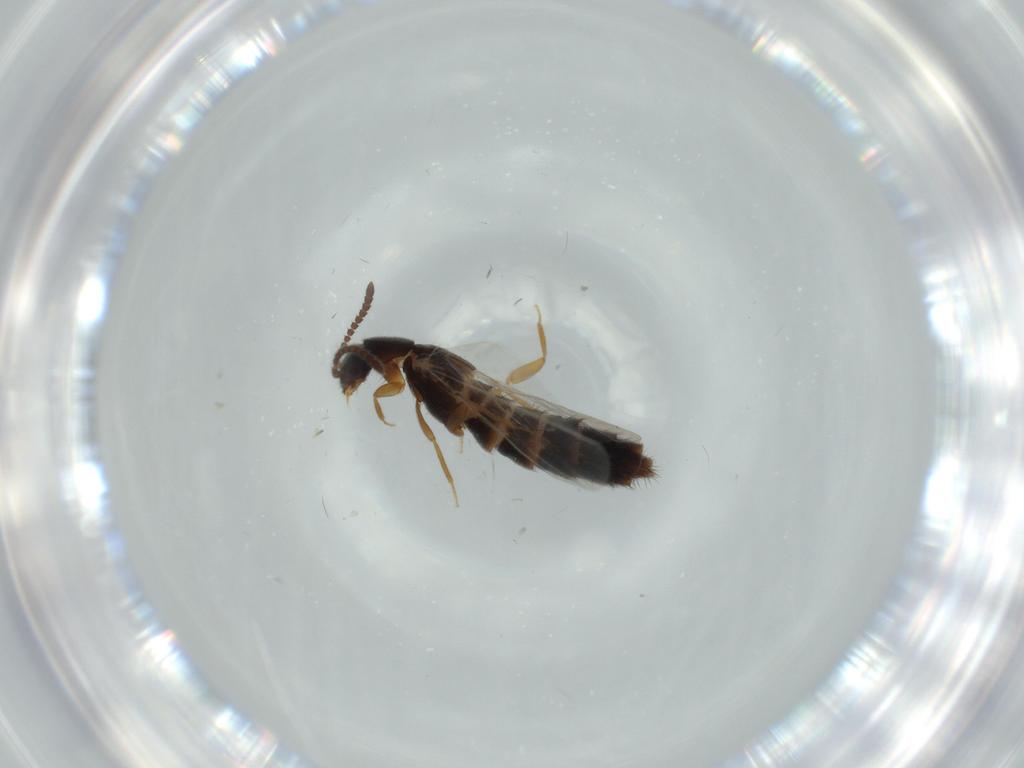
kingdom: Animalia
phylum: Arthropoda
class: Insecta
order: Coleoptera
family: Elateridae
